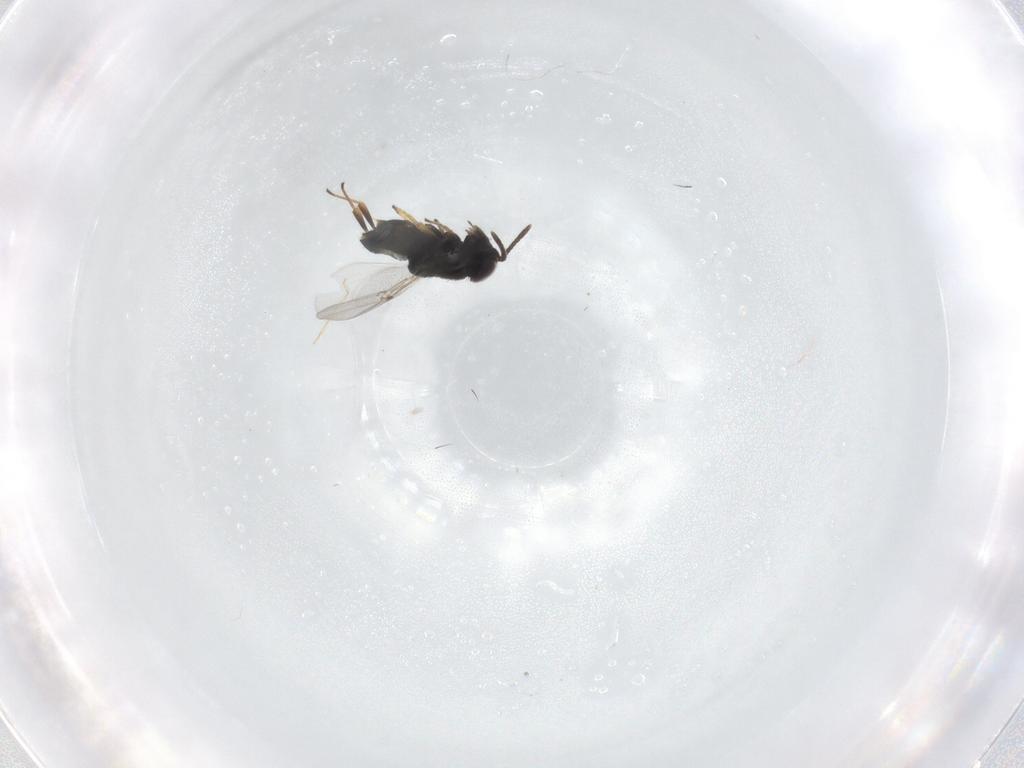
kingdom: Animalia
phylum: Arthropoda
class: Insecta
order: Hymenoptera
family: Encyrtidae
